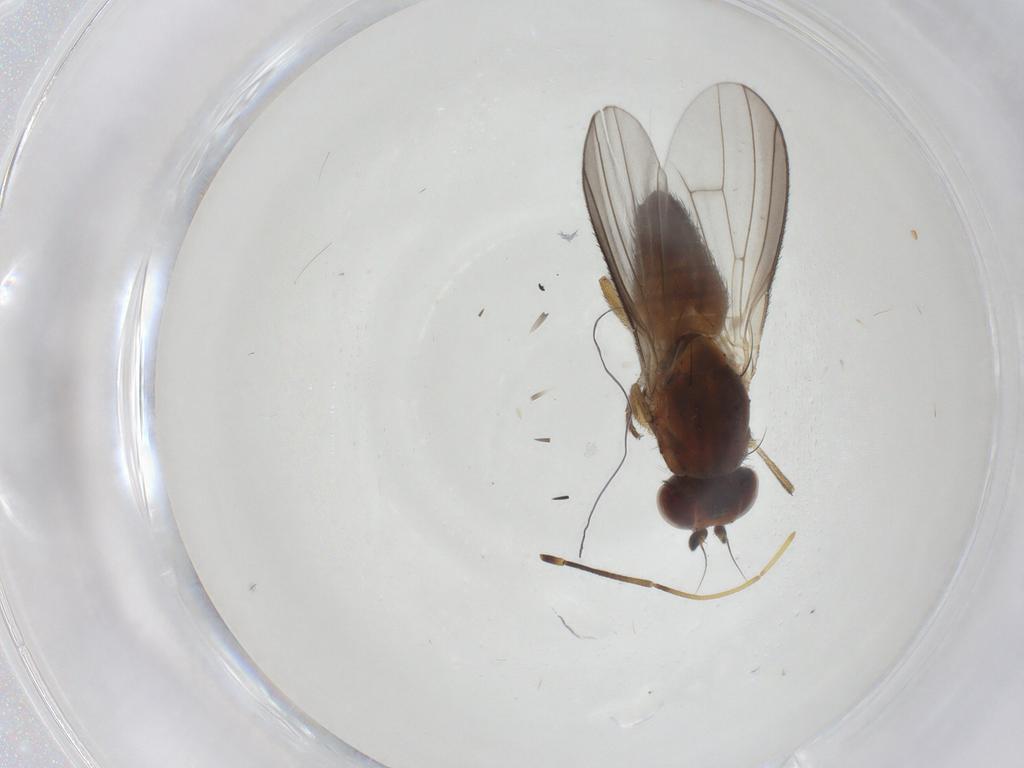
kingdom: Animalia
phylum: Arthropoda
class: Insecta
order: Diptera
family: Heleomyzidae
